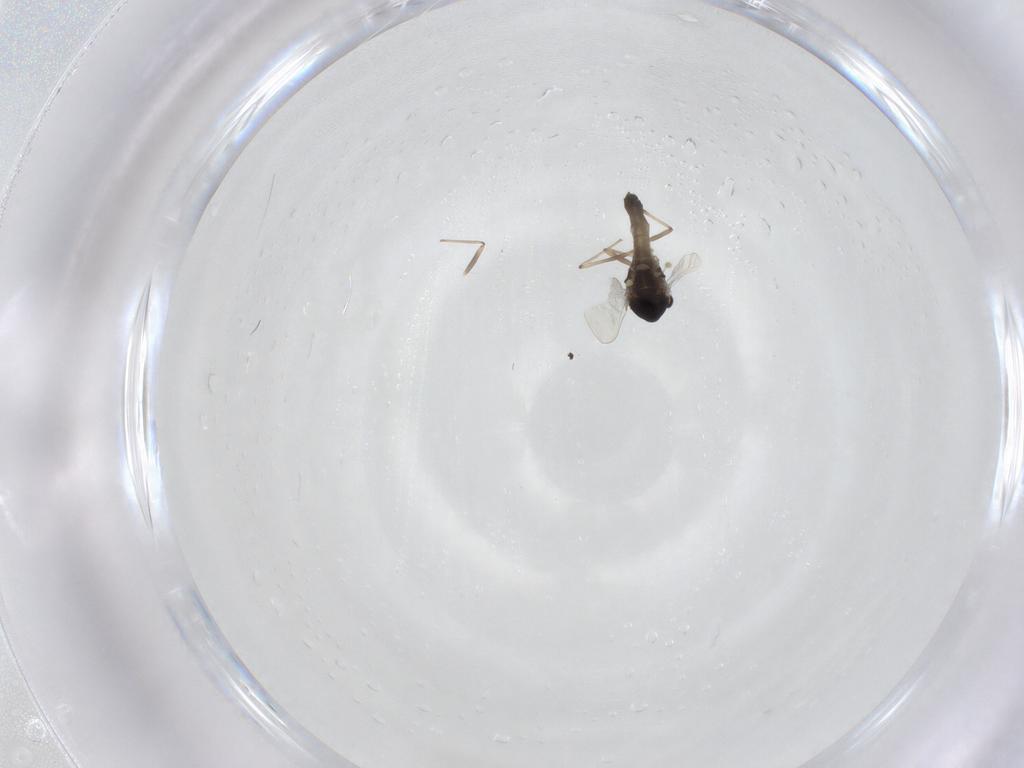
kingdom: Animalia
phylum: Arthropoda
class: Insecta
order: Diptera
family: Chironomidae
